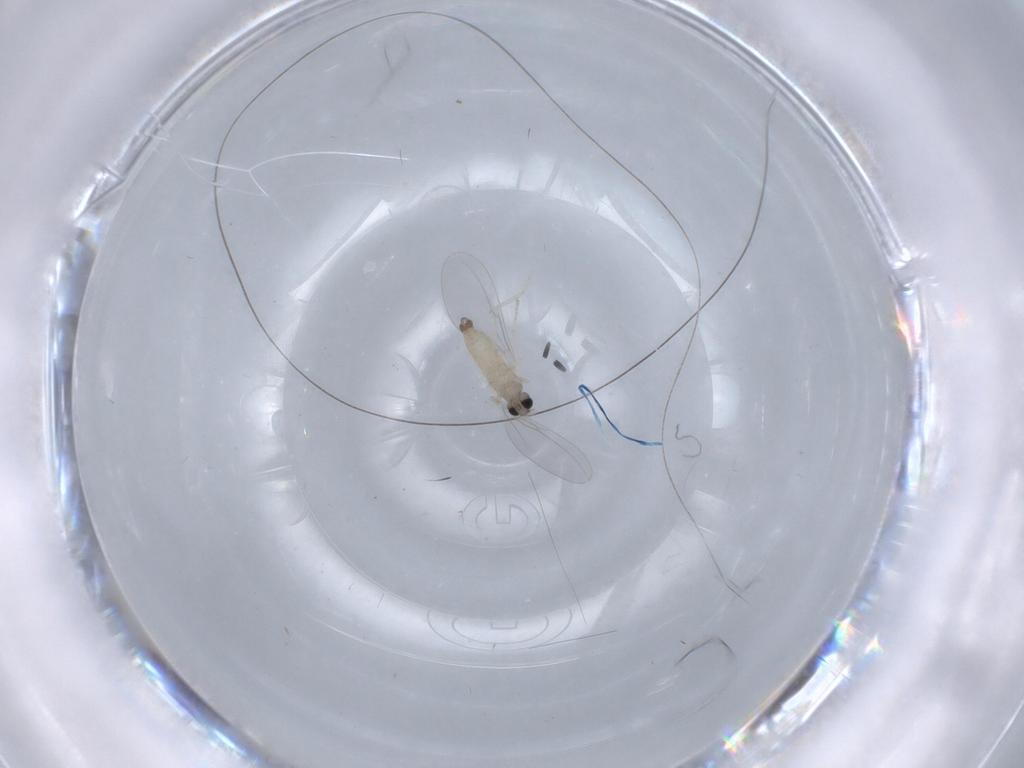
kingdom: Animalia
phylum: Arthropoda
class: Insecta
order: Diptera
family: Cecidomyiidae
